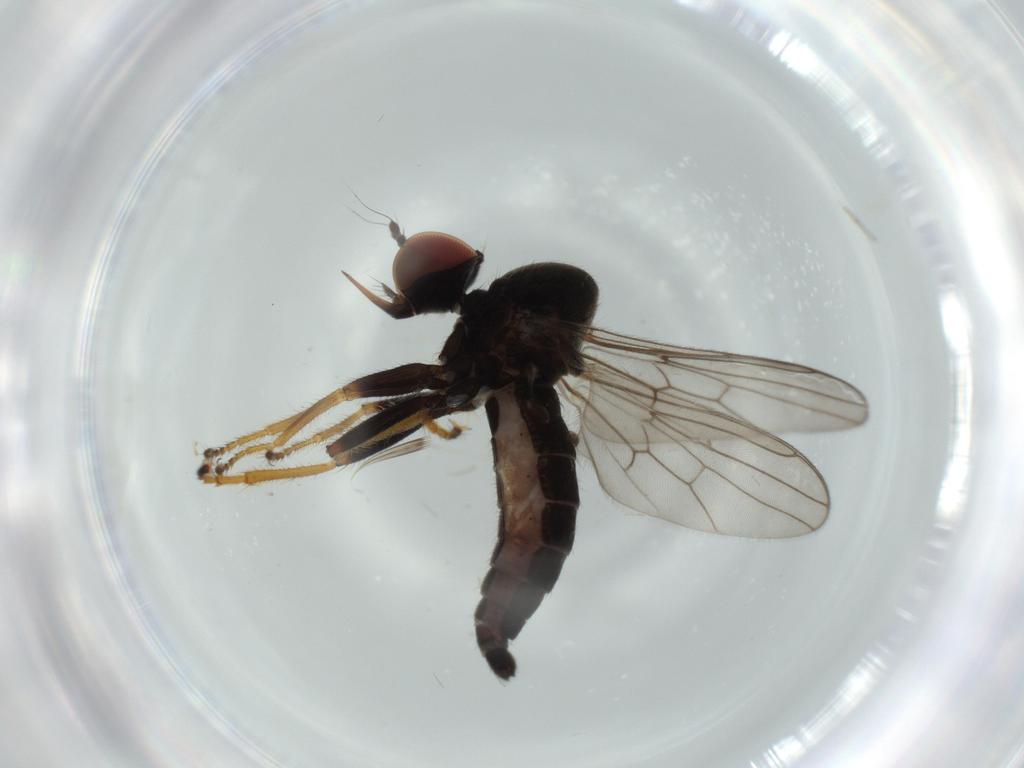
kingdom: Animalia
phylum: Arthropoda
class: Insecta
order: Diptera
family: Cecidomyiidae
